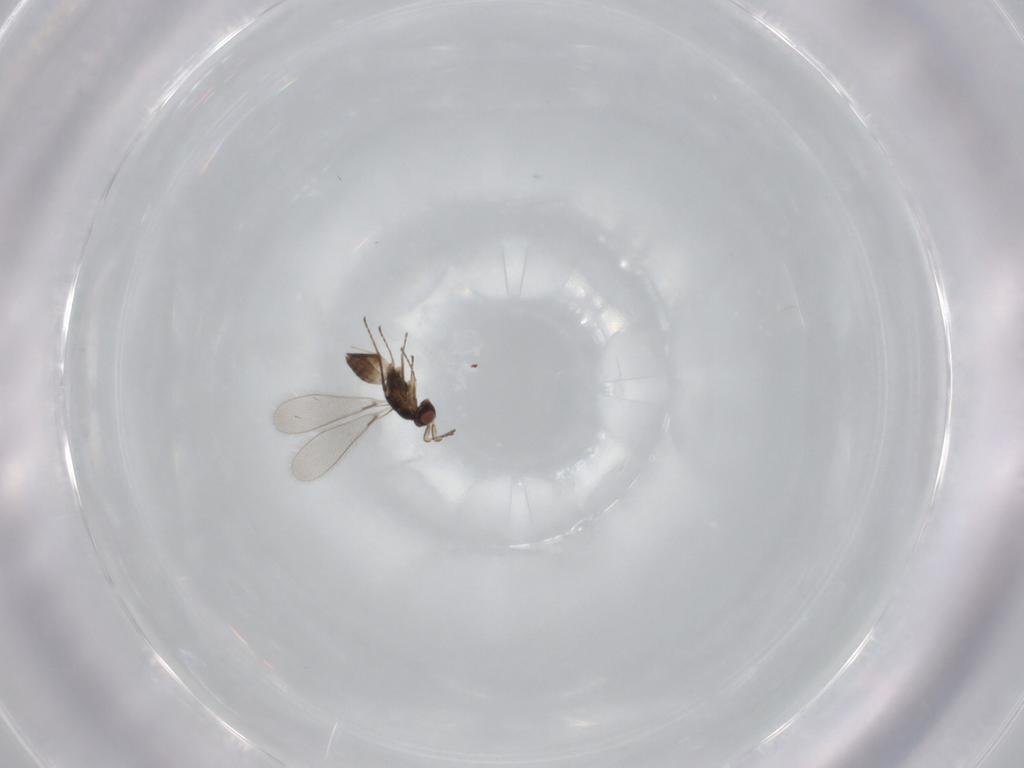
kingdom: Animalia
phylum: Arthropoda
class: Insecta
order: Hymenoptera
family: Mymaridae
